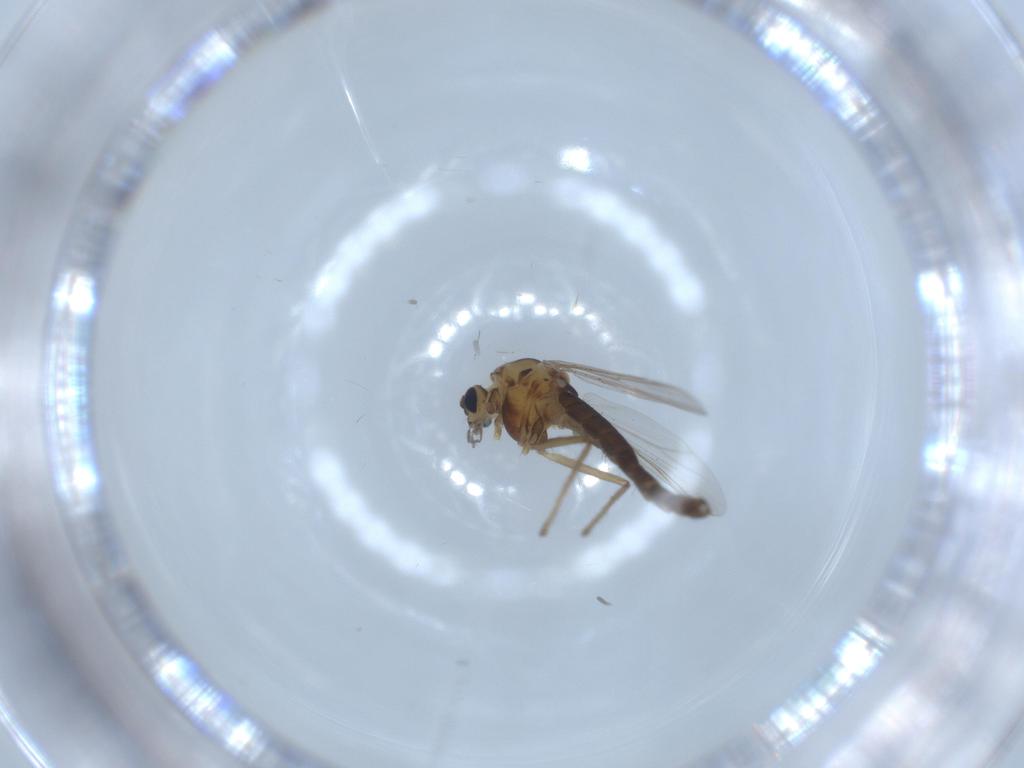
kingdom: Animalia
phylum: Arthropoda
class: Insecta
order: Diptera
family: Chironomidae
